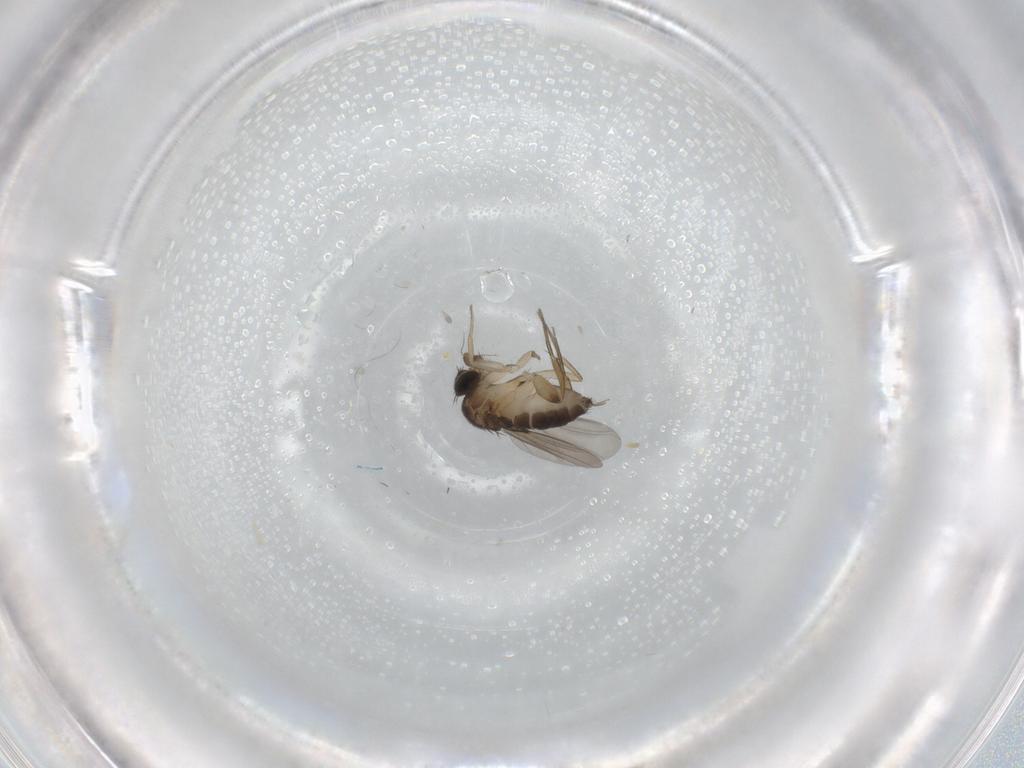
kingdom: Animalia
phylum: Arthropoda
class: Insecta
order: Diptera
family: Phoridae
